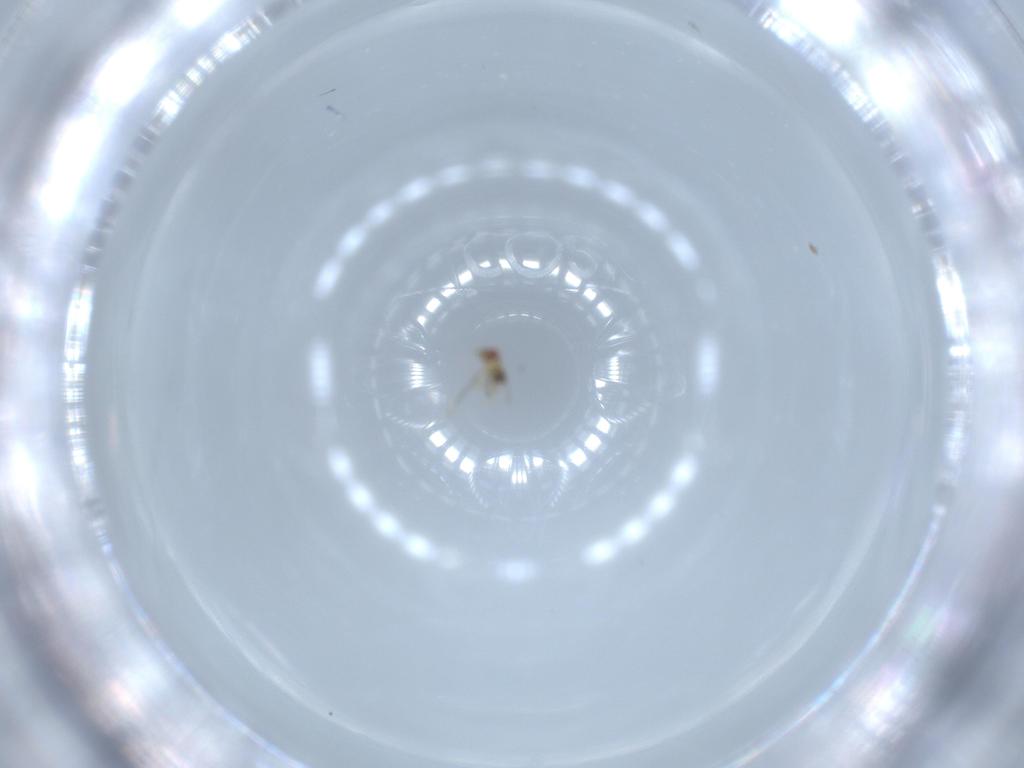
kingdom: Animalia
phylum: Arthropoda
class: Insecta
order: Hymenoptera
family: Trichogrammatidae
